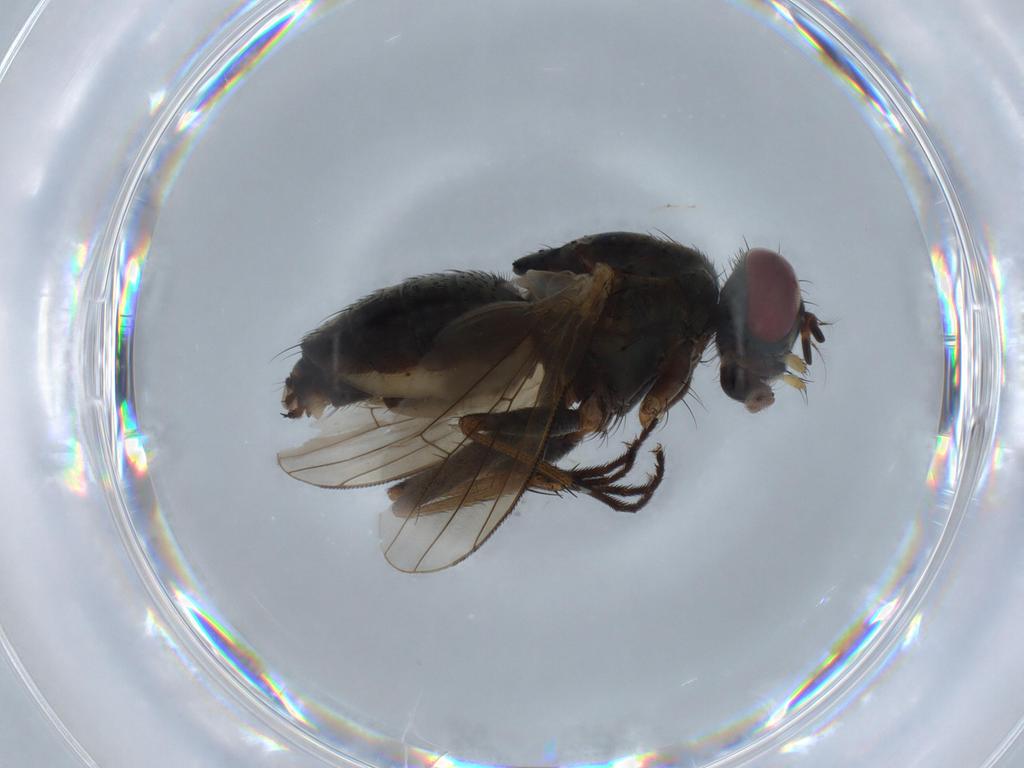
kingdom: Animalia
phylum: Arthropoda
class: Insecta
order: Diptera
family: Muscidae
